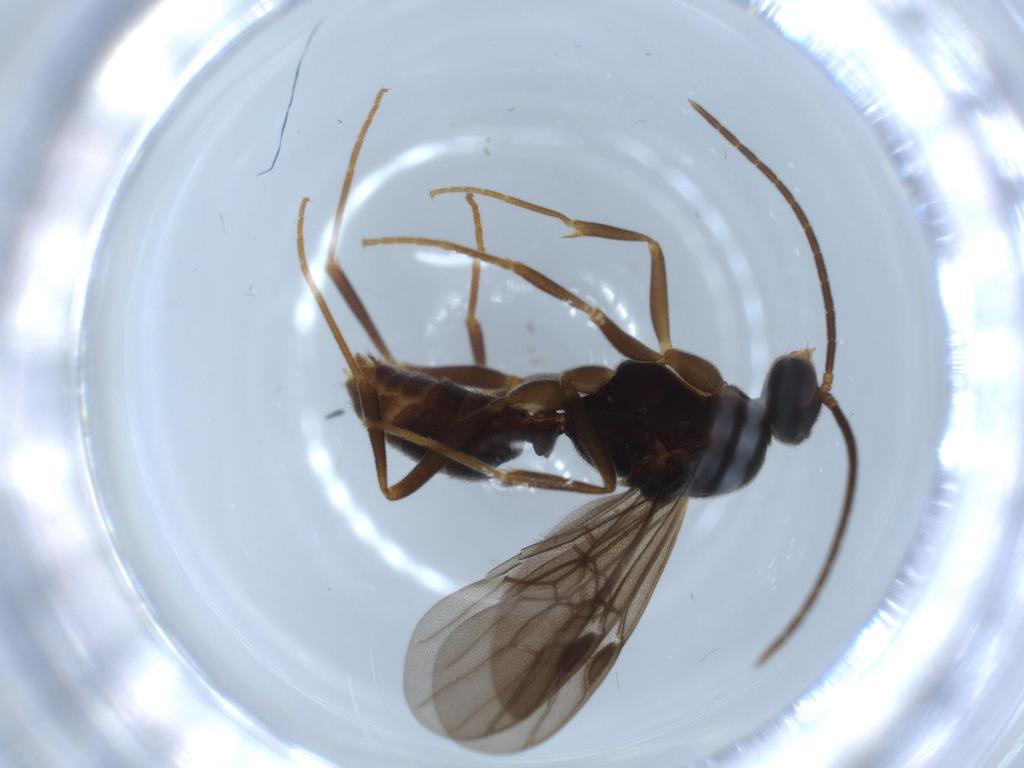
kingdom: Animalia
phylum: Arthropoda
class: Insecta
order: Hymenoptera
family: Formicidae
